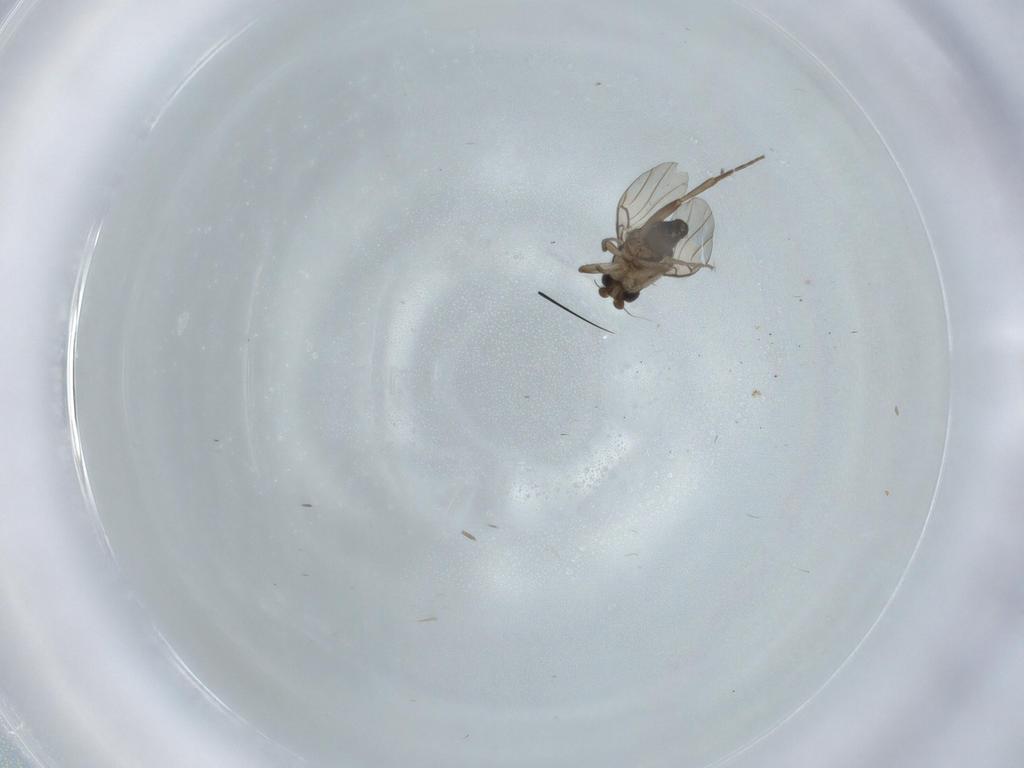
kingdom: Animalia
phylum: Arthropoda
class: Insecta
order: Diptera
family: Phoridae
